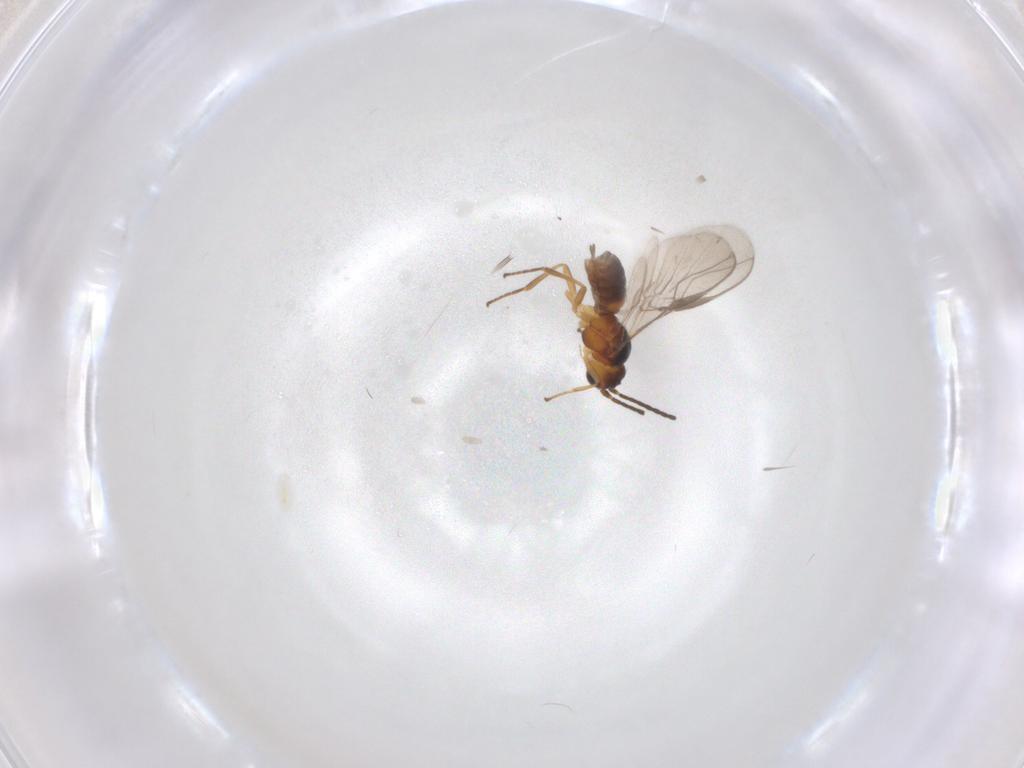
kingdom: Animalia
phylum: Arthropoda
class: Insecta
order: Hymenoptera
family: Braconidae
